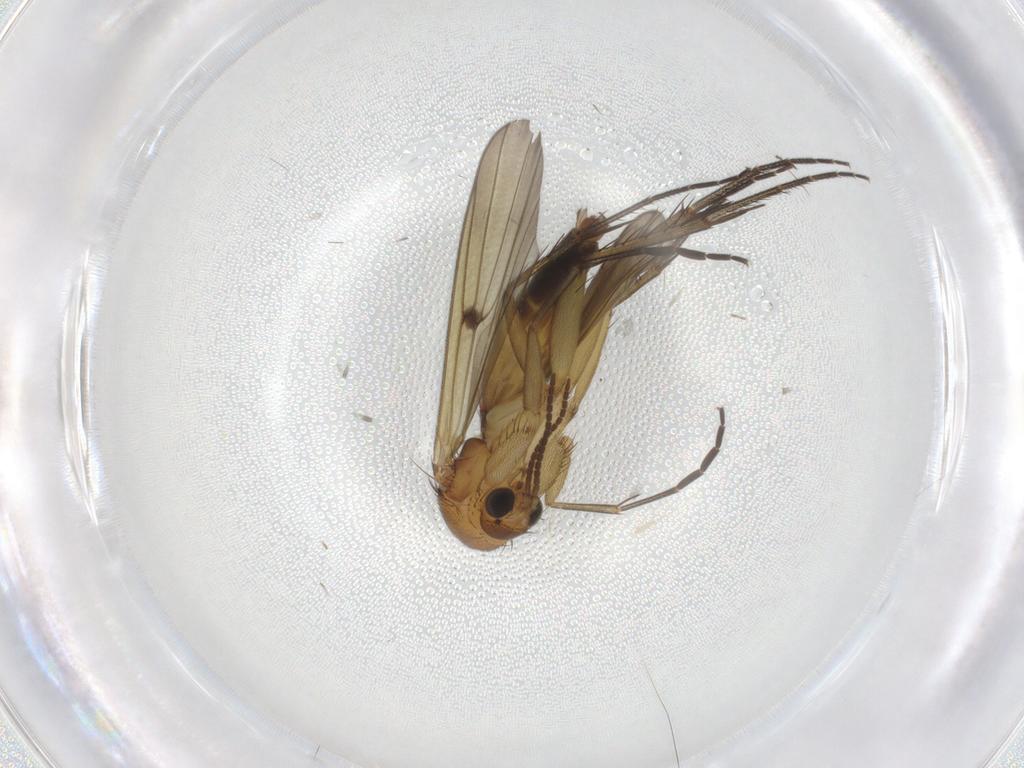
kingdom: Animalia
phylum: Arthropoda
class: Insecta
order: Diptera
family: Mycetophilidae
